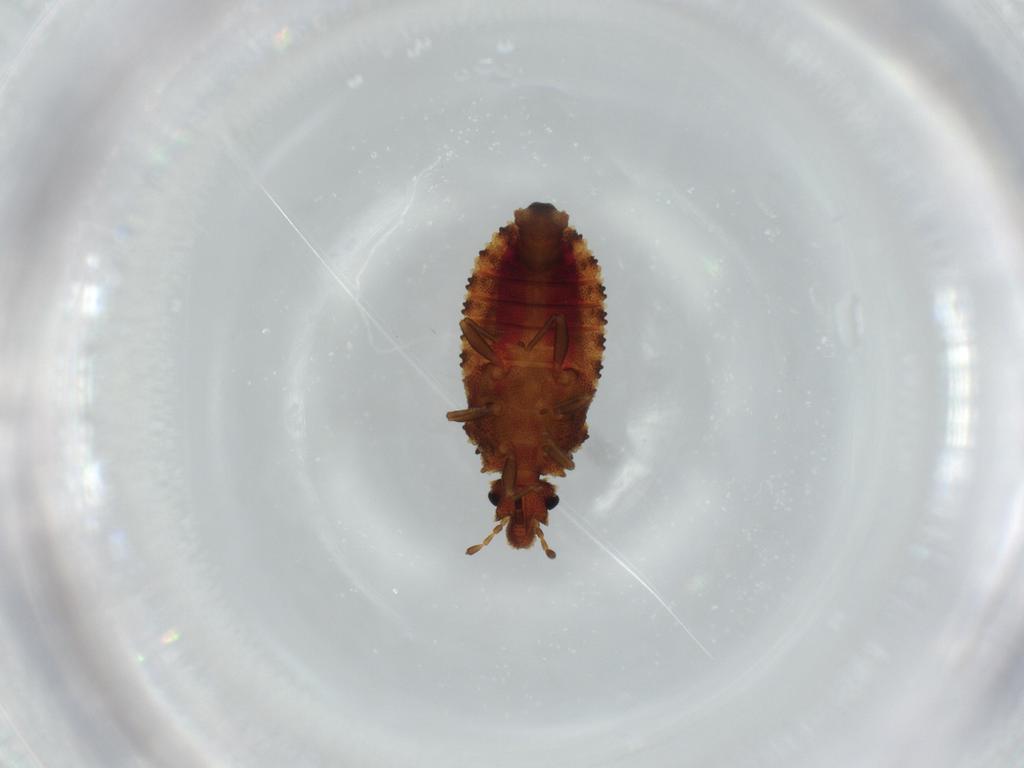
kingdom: Animalia
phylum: Arthropoda
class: Insecta
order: Hemiptera
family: Aradidae
